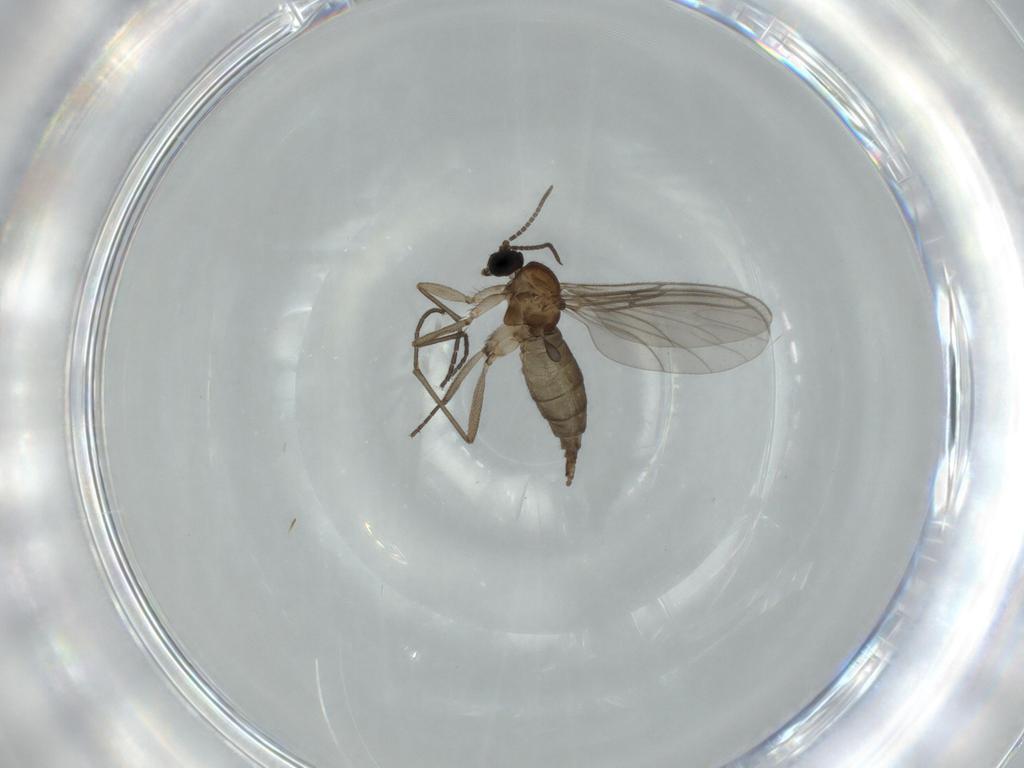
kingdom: Animalia
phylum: Arthropoda
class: Insecta
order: Diptera
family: Sciaridae
